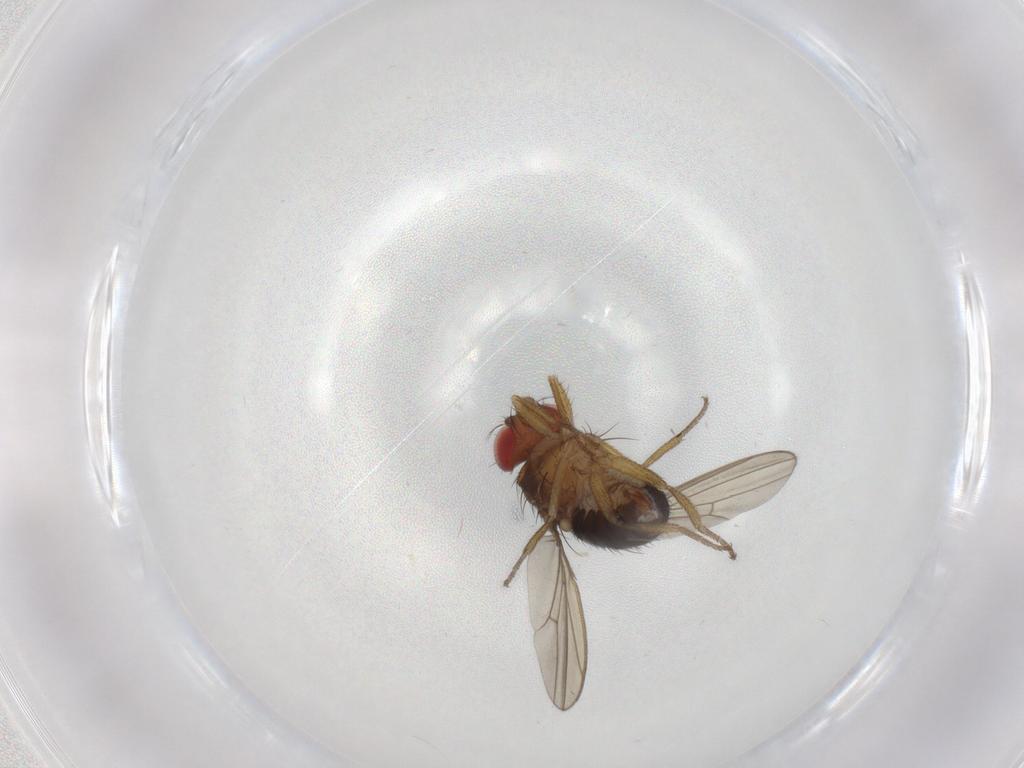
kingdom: Animalia
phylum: Arthropoda
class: Insecta
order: Diptera
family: Drosophilidae
